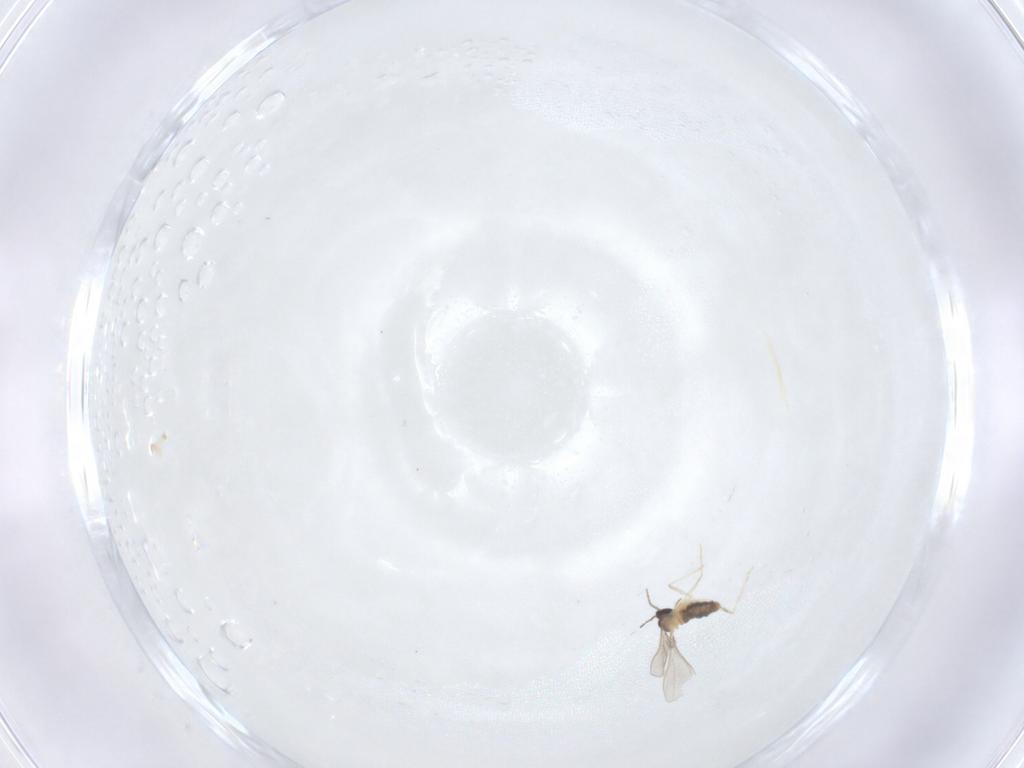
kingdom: Animalia
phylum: Arthropoda
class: Insecta
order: Diptera
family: Cecidomyiidae
